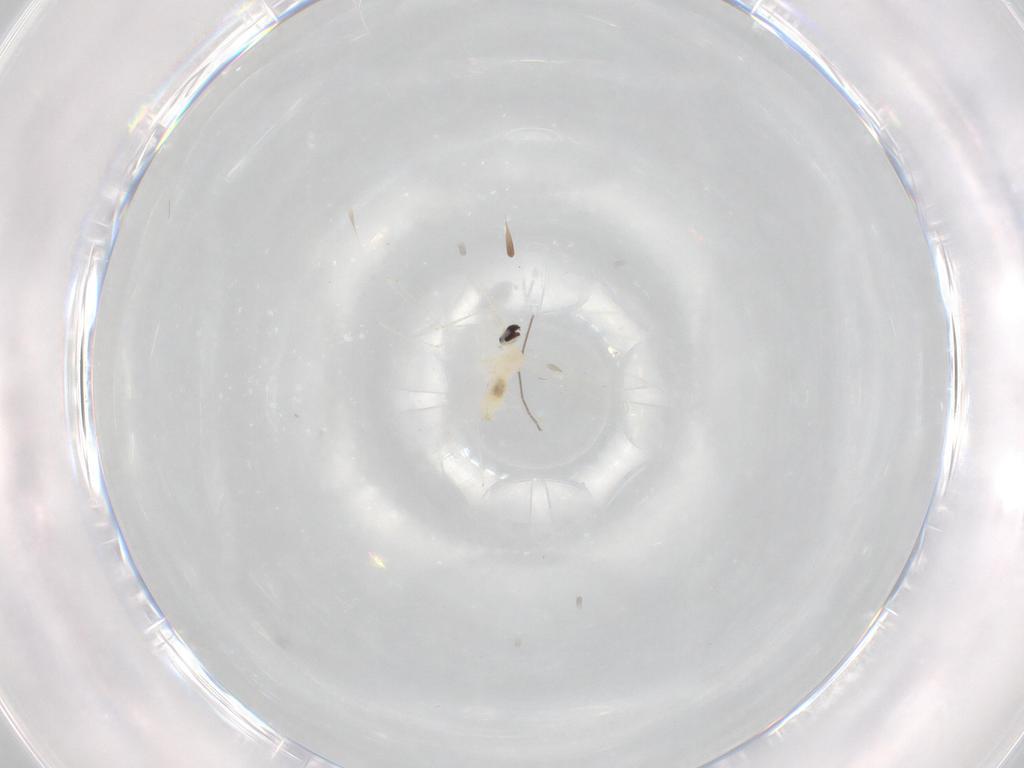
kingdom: Animalia
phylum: Arthropoda
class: Insecta
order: Diptera
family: Cecidomyiidae
